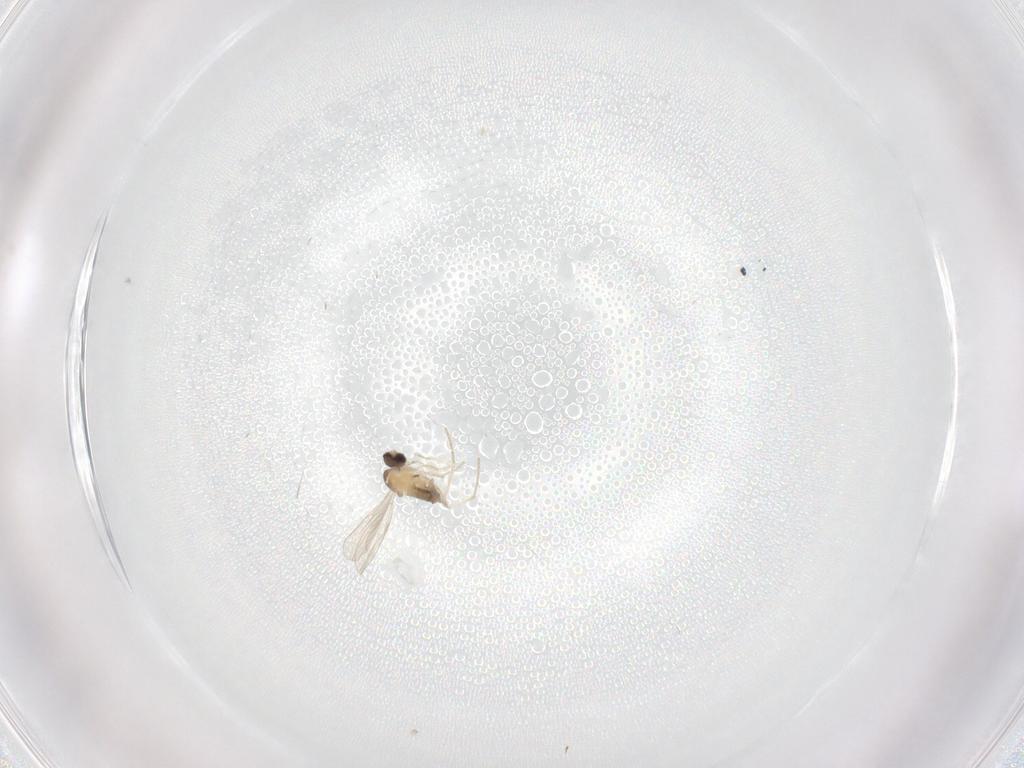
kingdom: Animalia
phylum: Arthropoda
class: Insecta
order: Diptera
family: Cecidomyiidae
